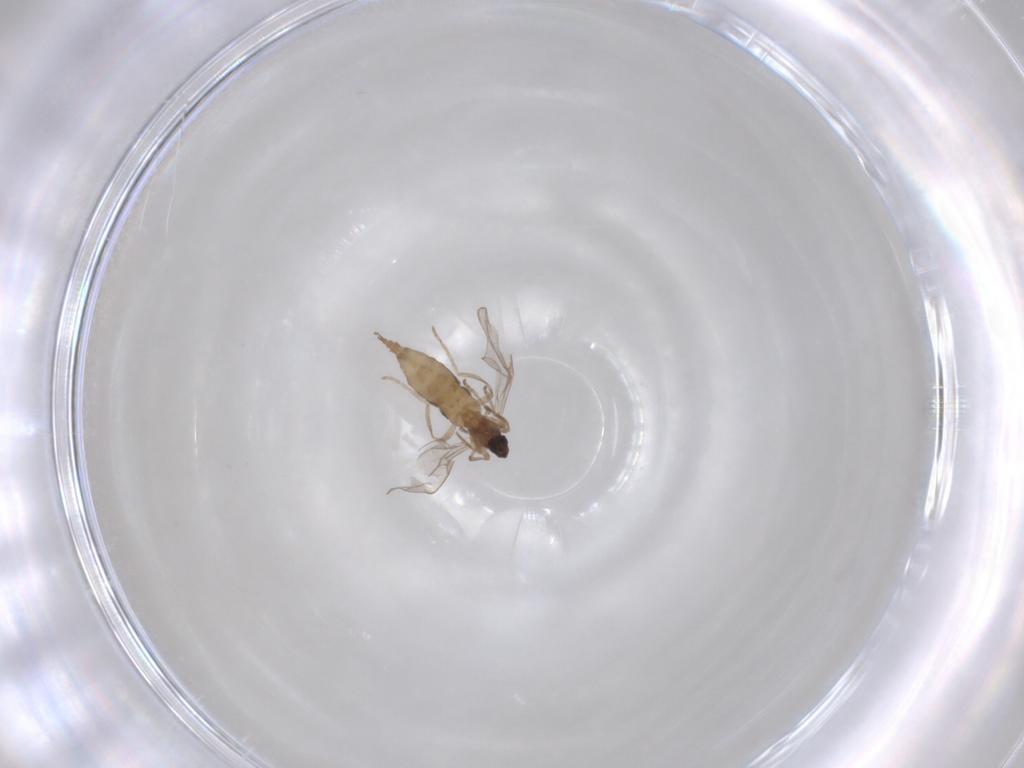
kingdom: Animalia
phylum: Arthropoda
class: Insecta
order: Diptera
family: Cecidomyiidae
